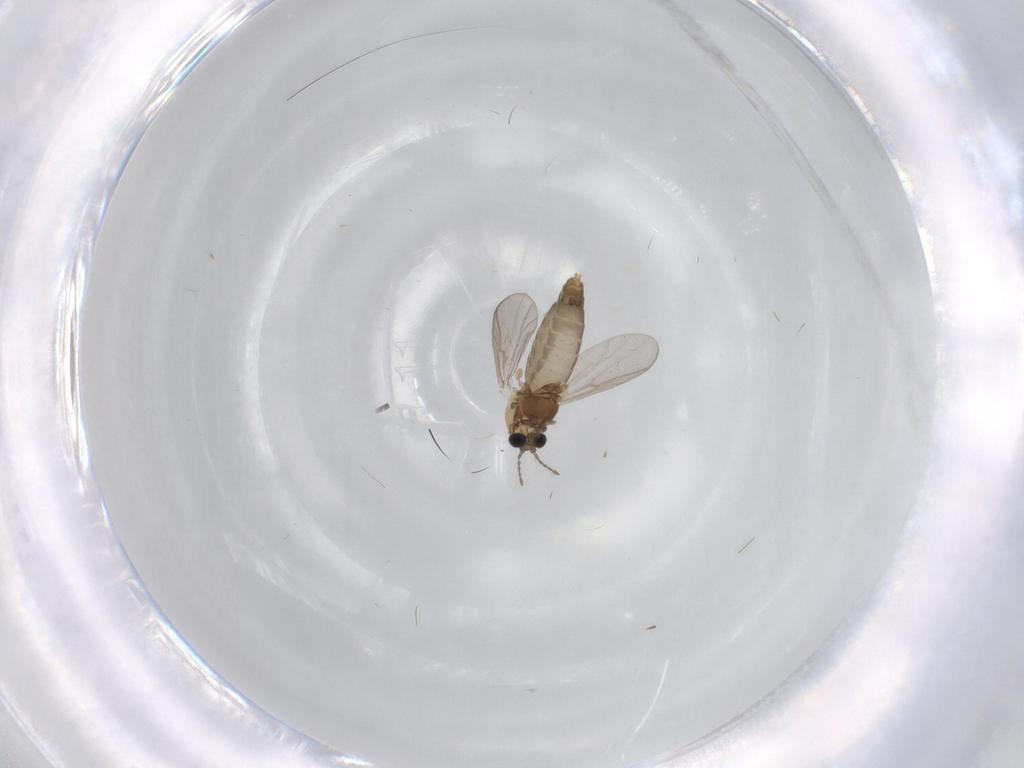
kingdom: Animalia
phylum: Arthropoda
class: Insecta
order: Diptera
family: Chironomidae
